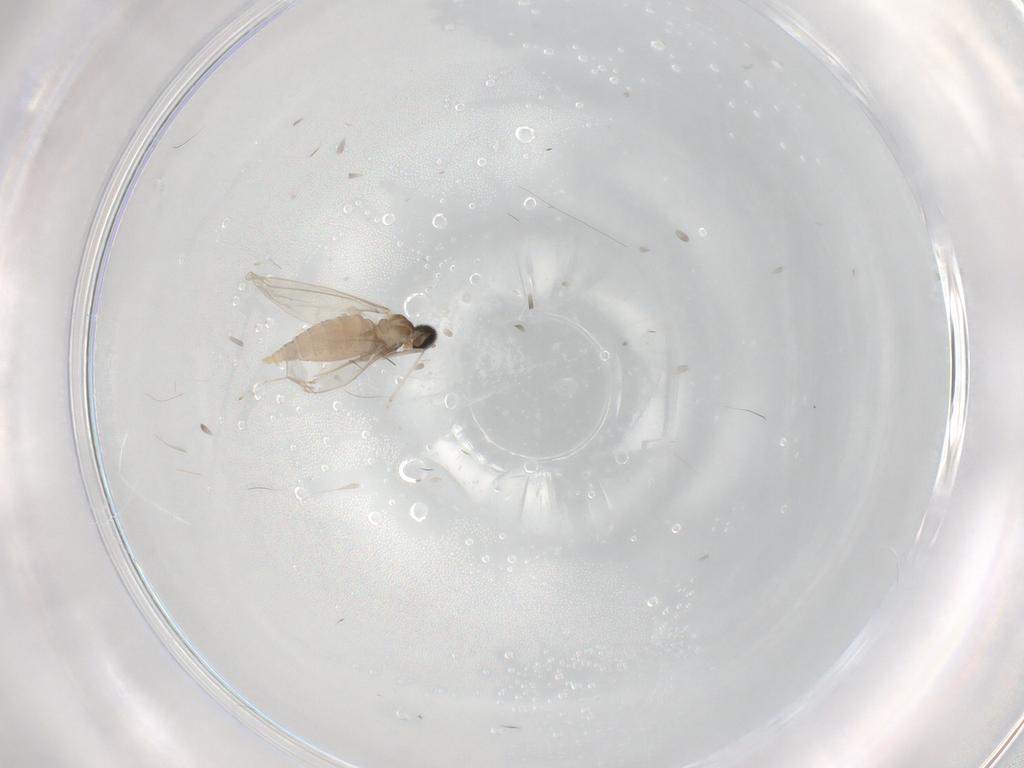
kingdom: Animalia
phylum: Arthropoda
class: Insecta
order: Diptera
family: Cecidomyiidae
